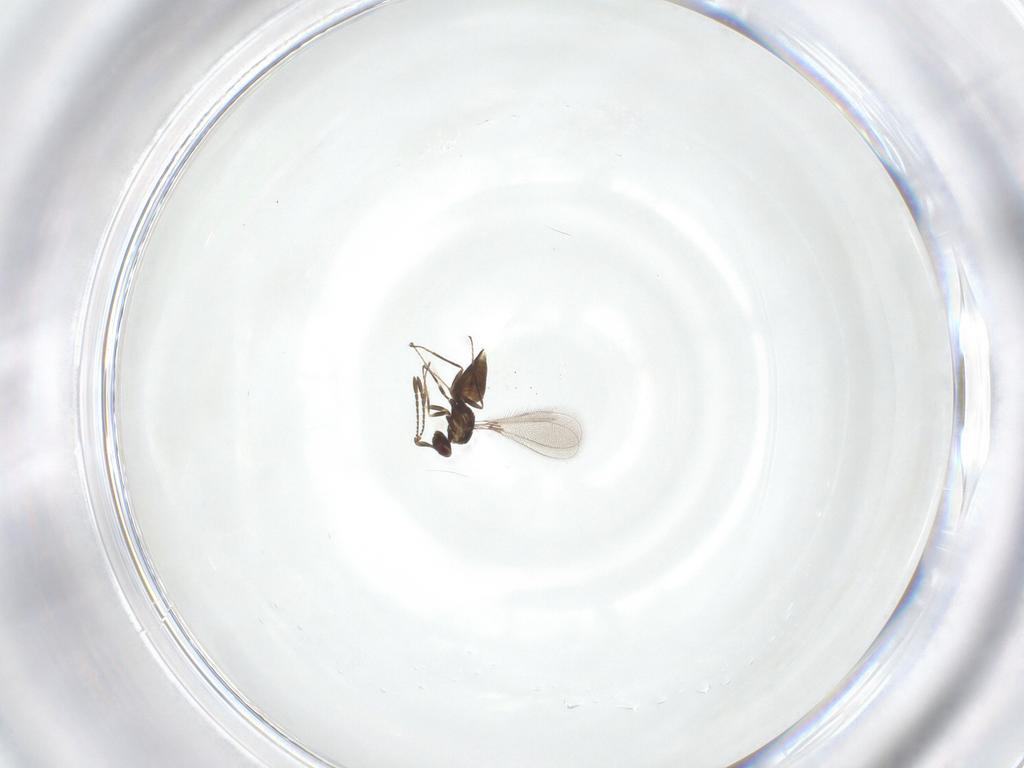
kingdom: Animalia
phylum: Arthropoda
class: Insecta
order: Hymenoptera
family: Mymaridae
